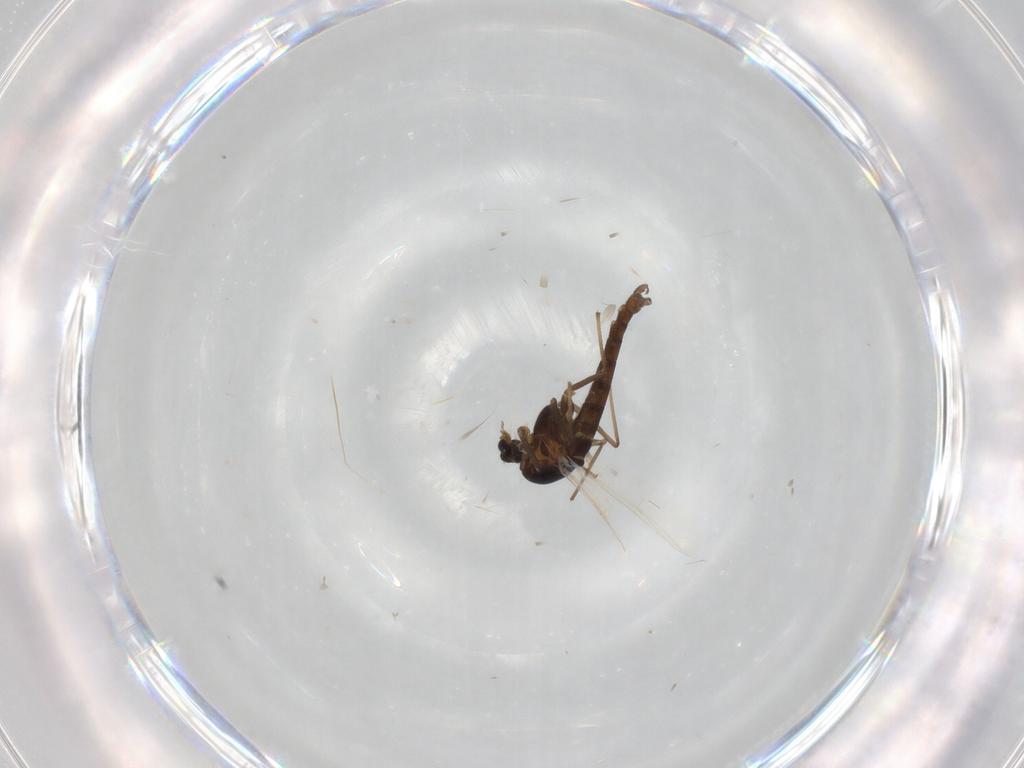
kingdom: Animalia
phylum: Arthropoda
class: Insecta
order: Diptera
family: Chironomidae
